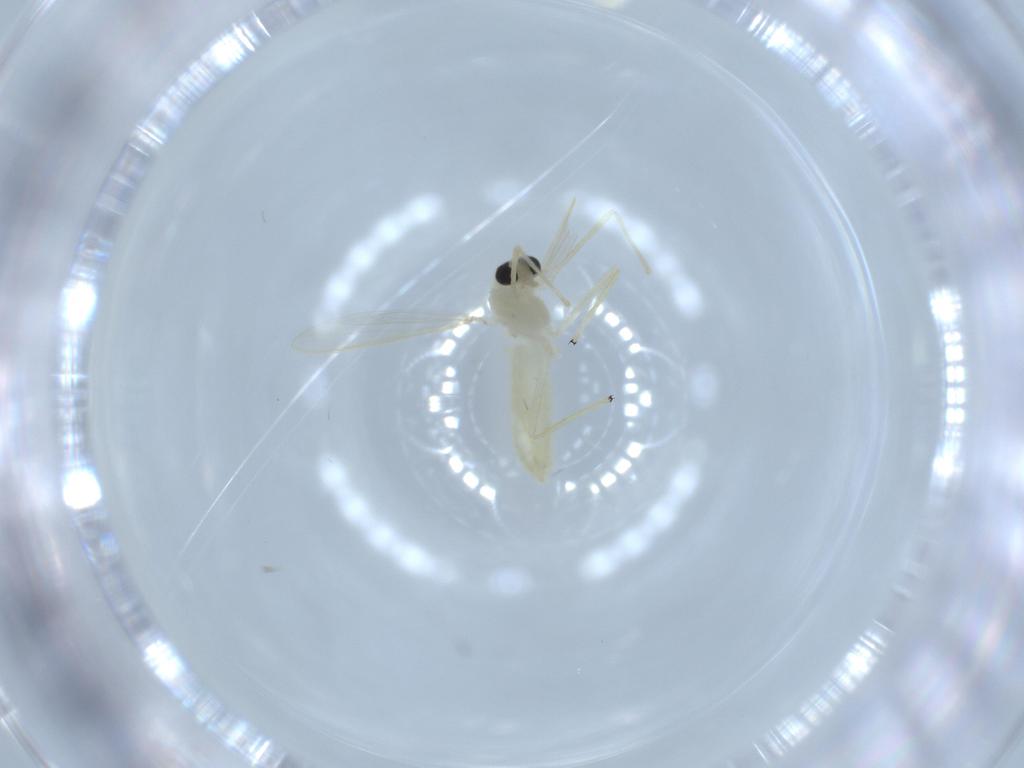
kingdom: Animalia
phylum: Arthropoda
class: Insecta
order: Diptera
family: Chironomidae
